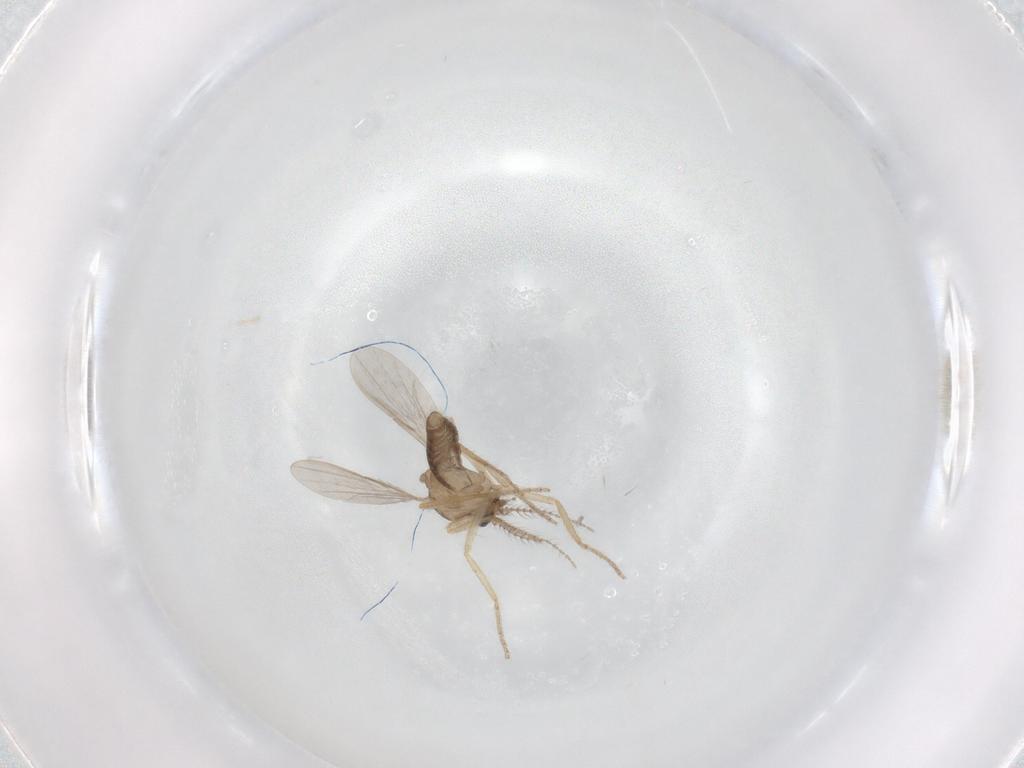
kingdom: Animalia
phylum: Arthropoda
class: Insecta
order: Diptera
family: Ceratopogonidae
